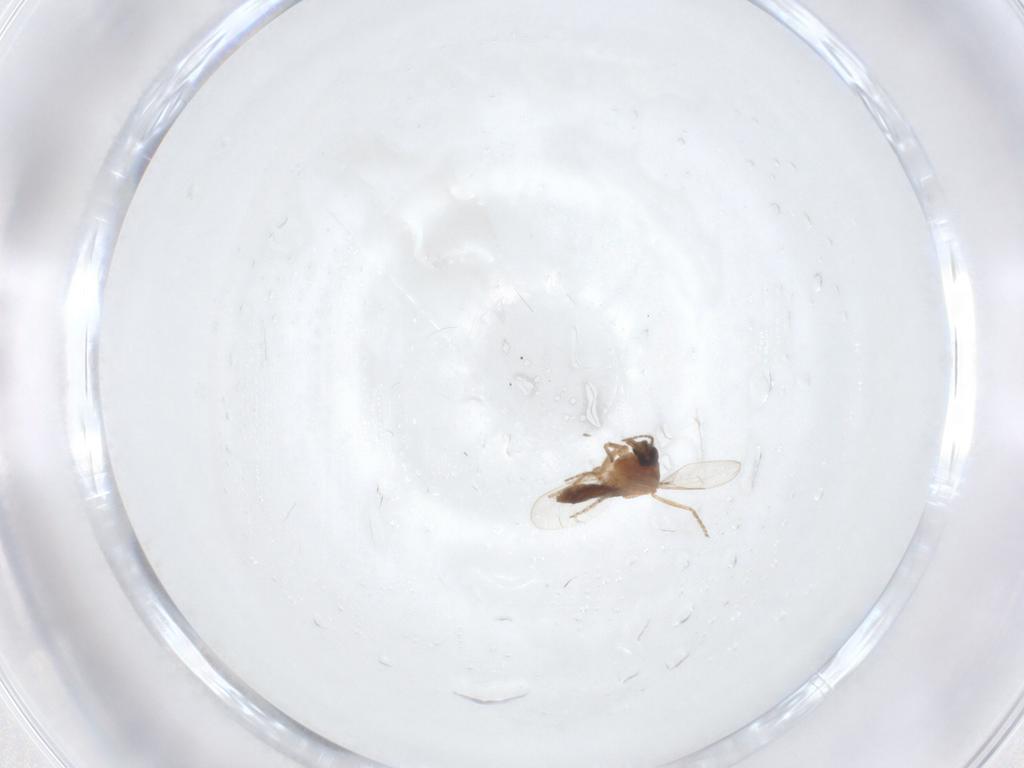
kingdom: Animalia
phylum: Arthropoda
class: Insecta
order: Diptera
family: Ceratopogonidae
